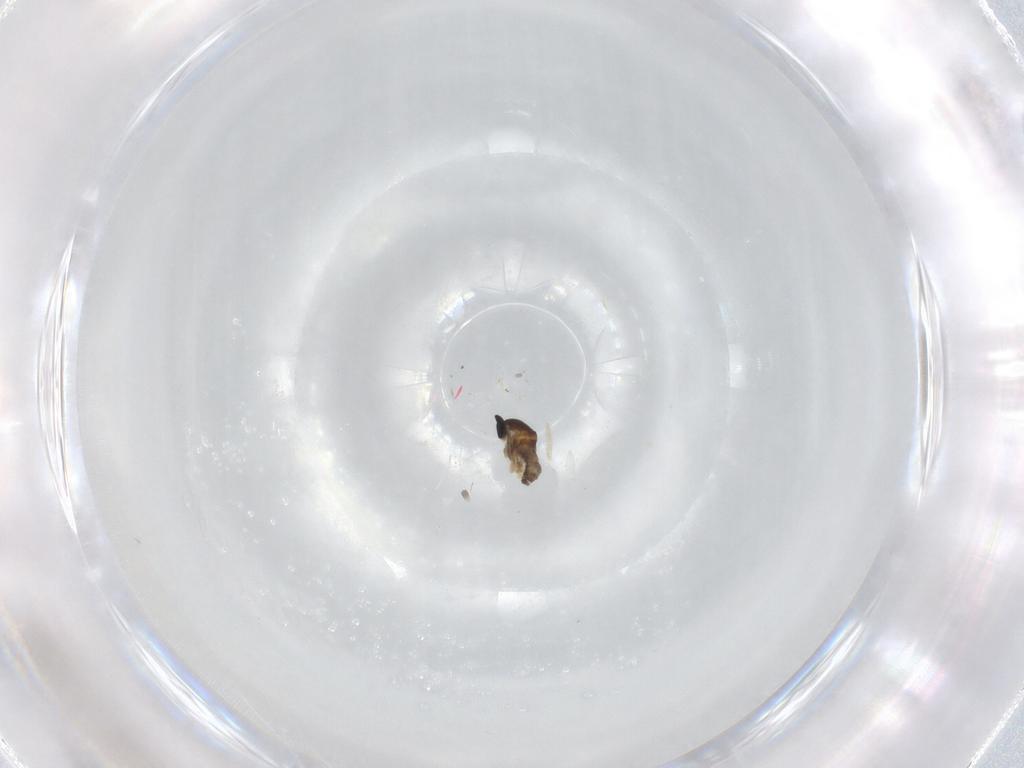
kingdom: Animalia
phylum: Arthropoda
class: Insecta
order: Diptera
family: Cecidomyiidae
